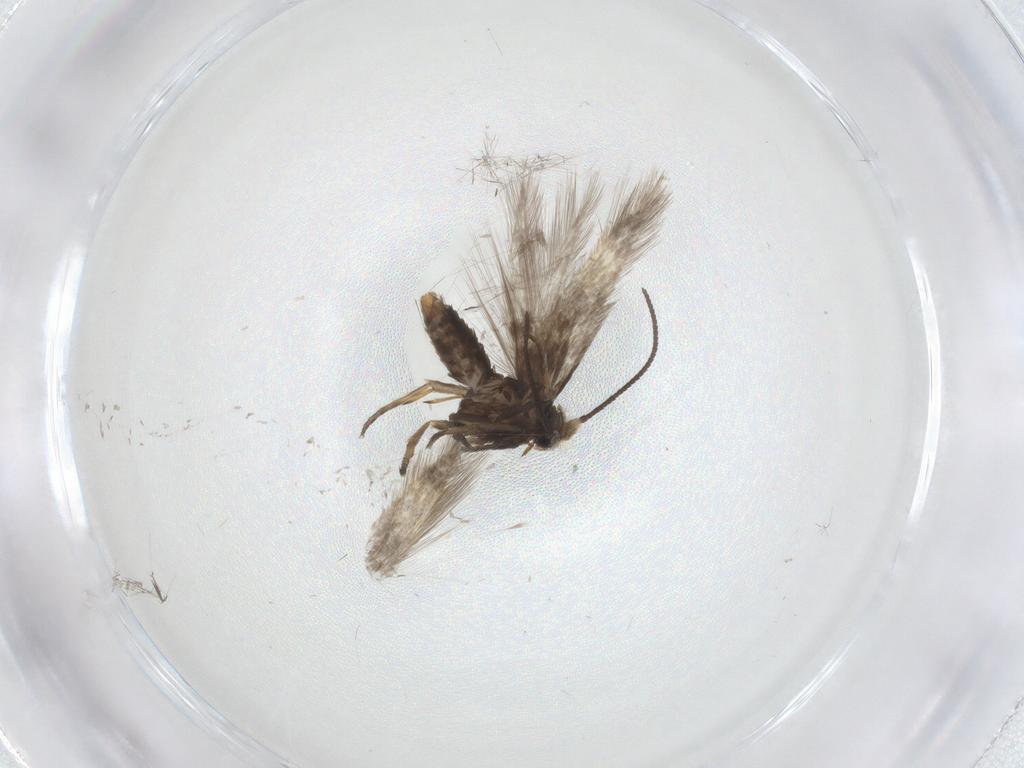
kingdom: Animalia
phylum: Arthropoda
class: Insecta
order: Lepidoptera
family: Nepticulidae
